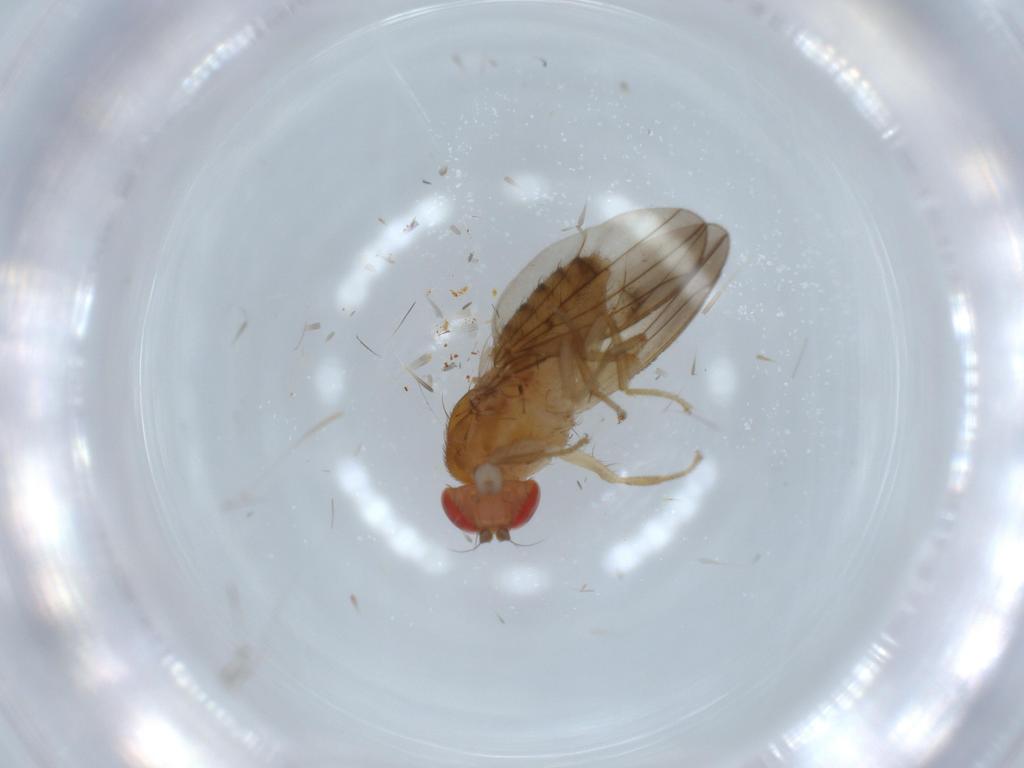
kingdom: Animalia
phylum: Arthropoda
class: Insecta
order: Diptera
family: Drosophilidae
